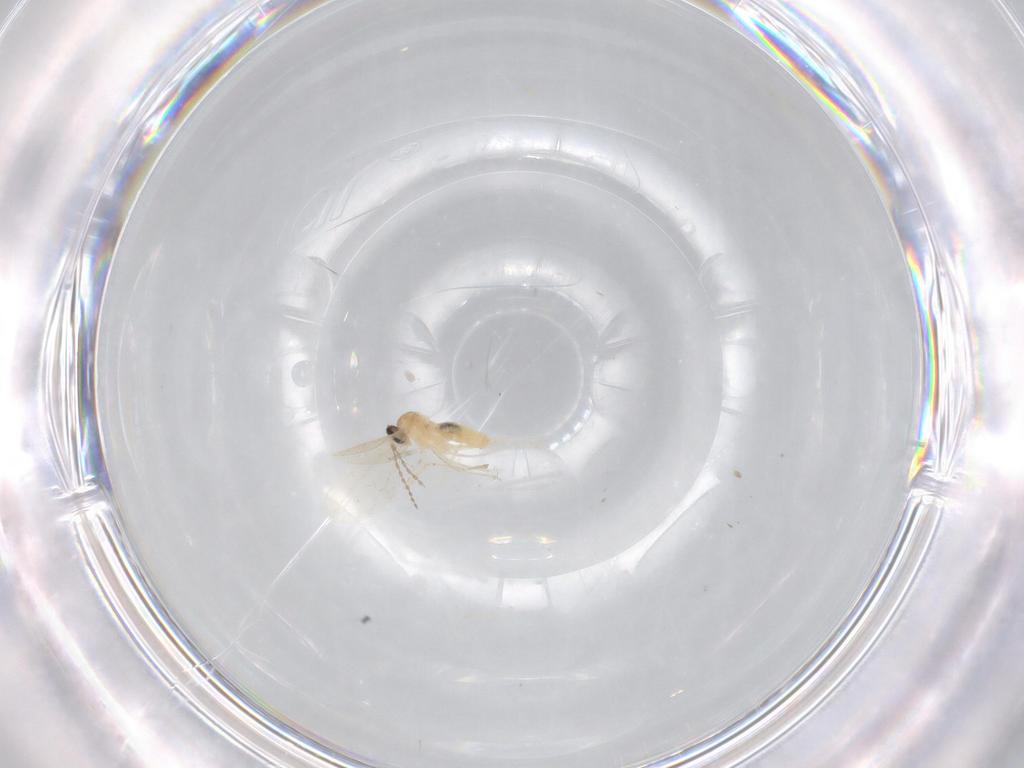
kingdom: Animalia
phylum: Arthropoda
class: Insecta
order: Diptera
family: Cecidomyiidae
